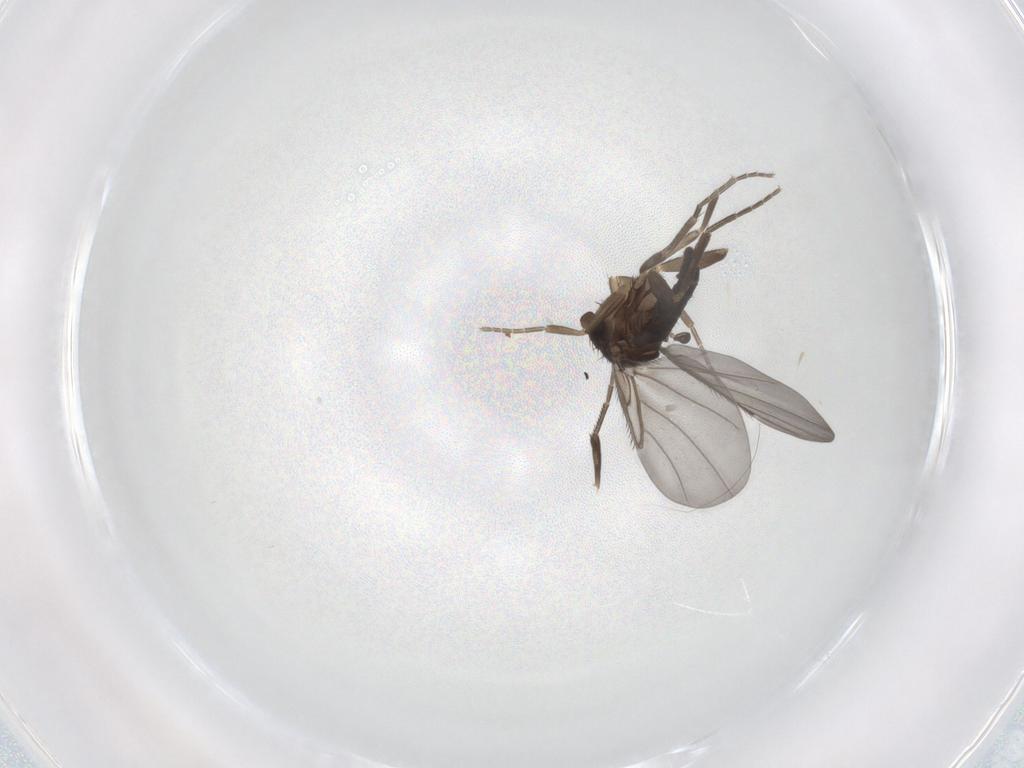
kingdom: Animalia
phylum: Arthropoda
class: Insecta
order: Diptera
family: Phoridae
